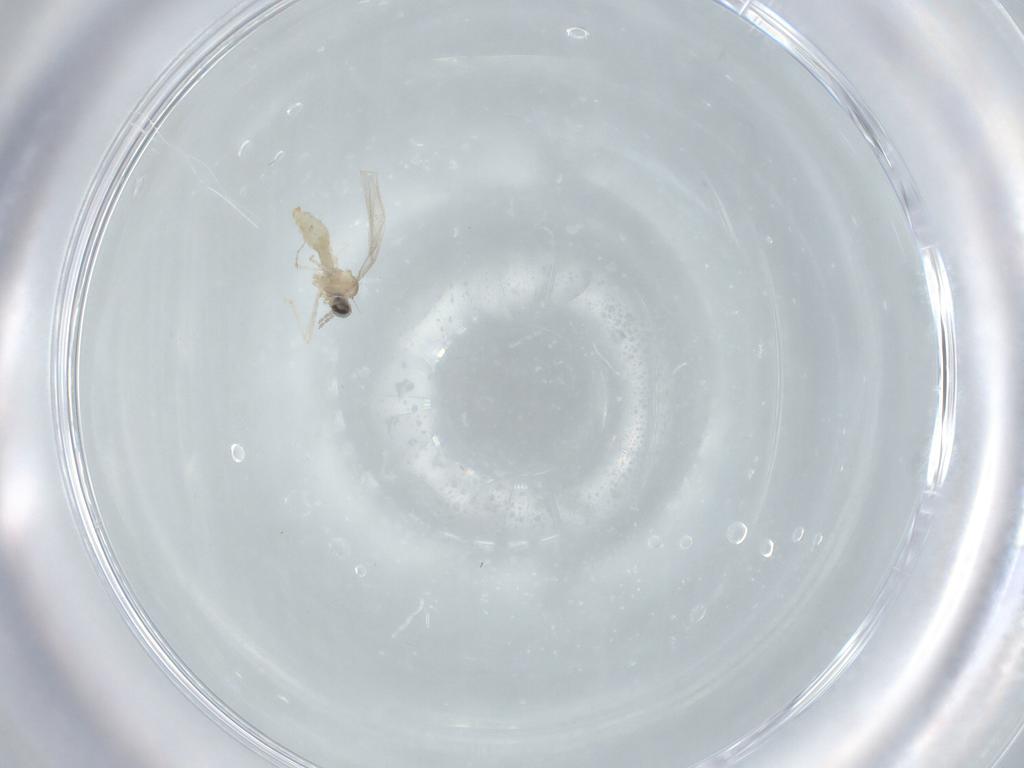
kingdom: Animalia
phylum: Arthropoda
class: Insecta
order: Diptera
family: Cecidomyiidae
